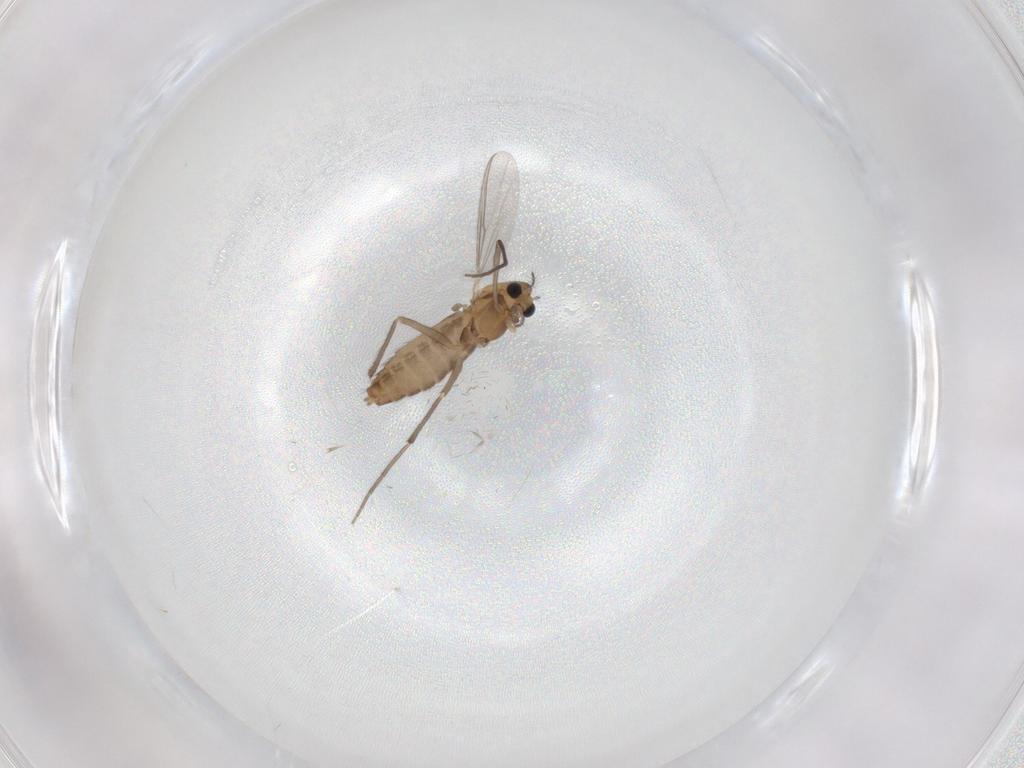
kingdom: Animalia
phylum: Arthropoda
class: Insecta
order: Diptera
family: Chironomidae
